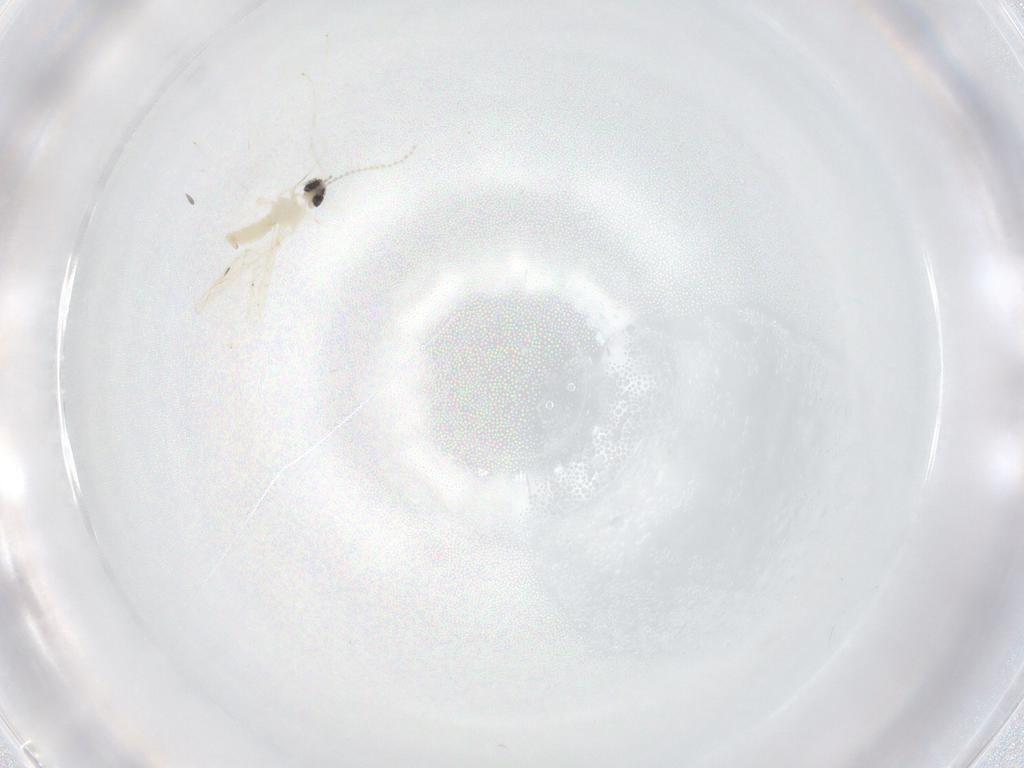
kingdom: Animalia
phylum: Arthropoda
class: Insecta
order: Diptera
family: Cecidomyiidae
